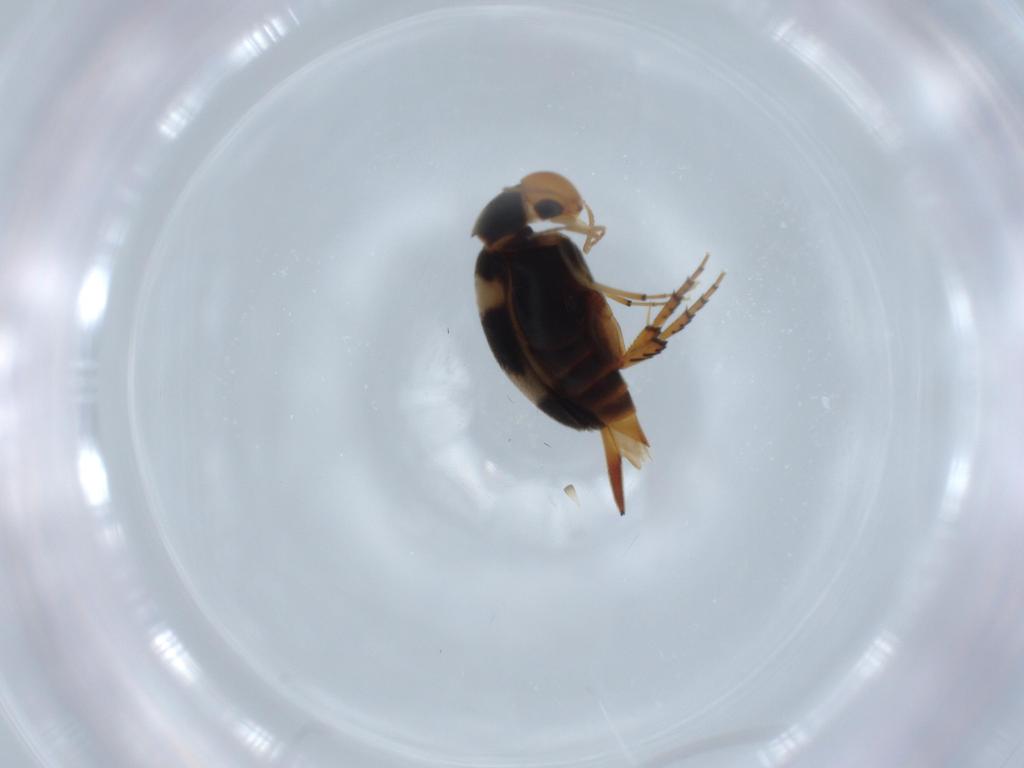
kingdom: Animalia
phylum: Arthropoda
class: Insecta
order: Coleoptera
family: Mordellidae
